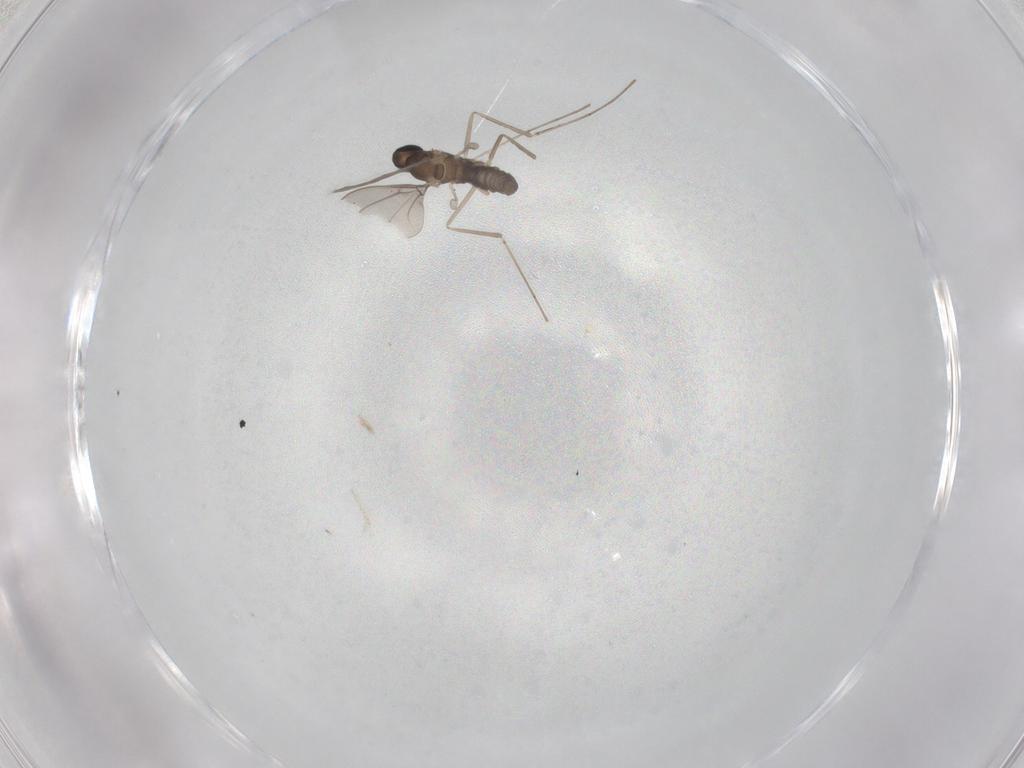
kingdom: Animalia
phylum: Arthropoda
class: Insecta
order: Diptera
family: Cecidomyiidae
